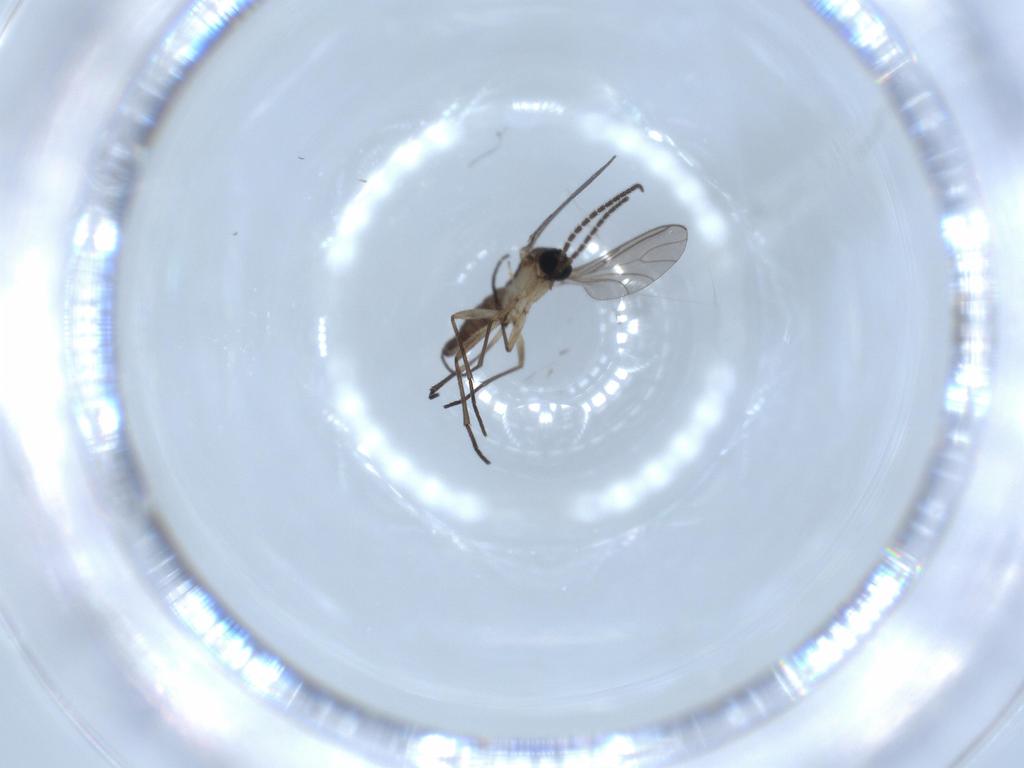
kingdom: Animalia
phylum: Arthropoda
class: Insecta
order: Diptera
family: Sciaridae
